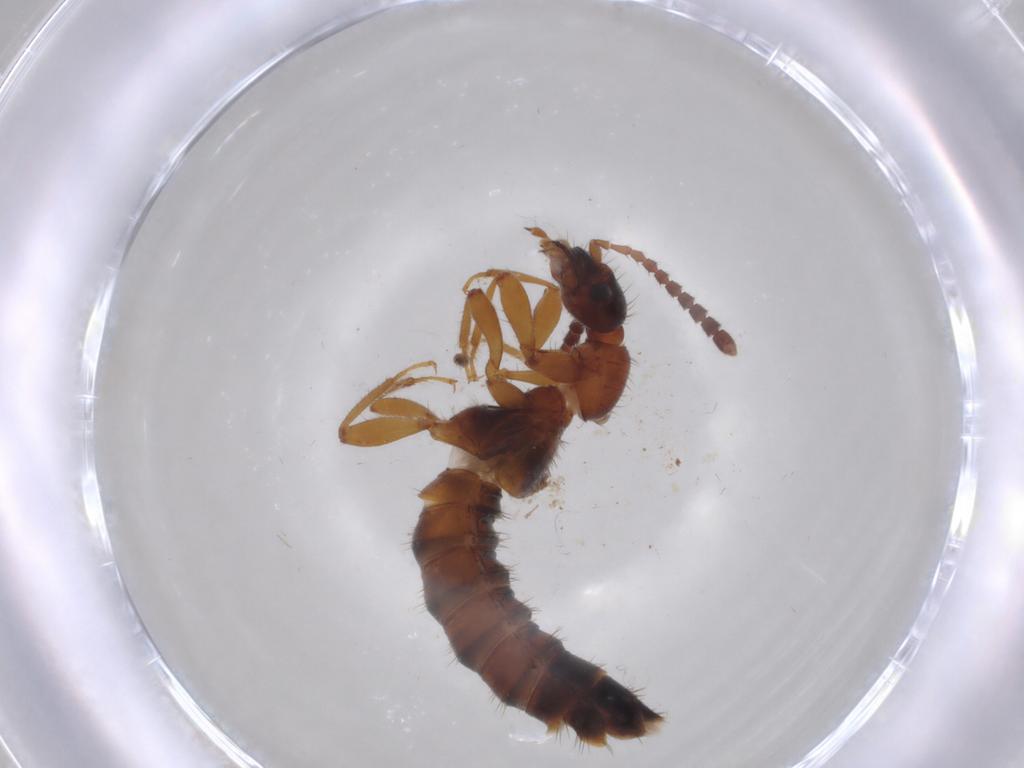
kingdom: Animalia
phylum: Arthropoda
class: Insecta
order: Coleoptera
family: Staphylinidae
